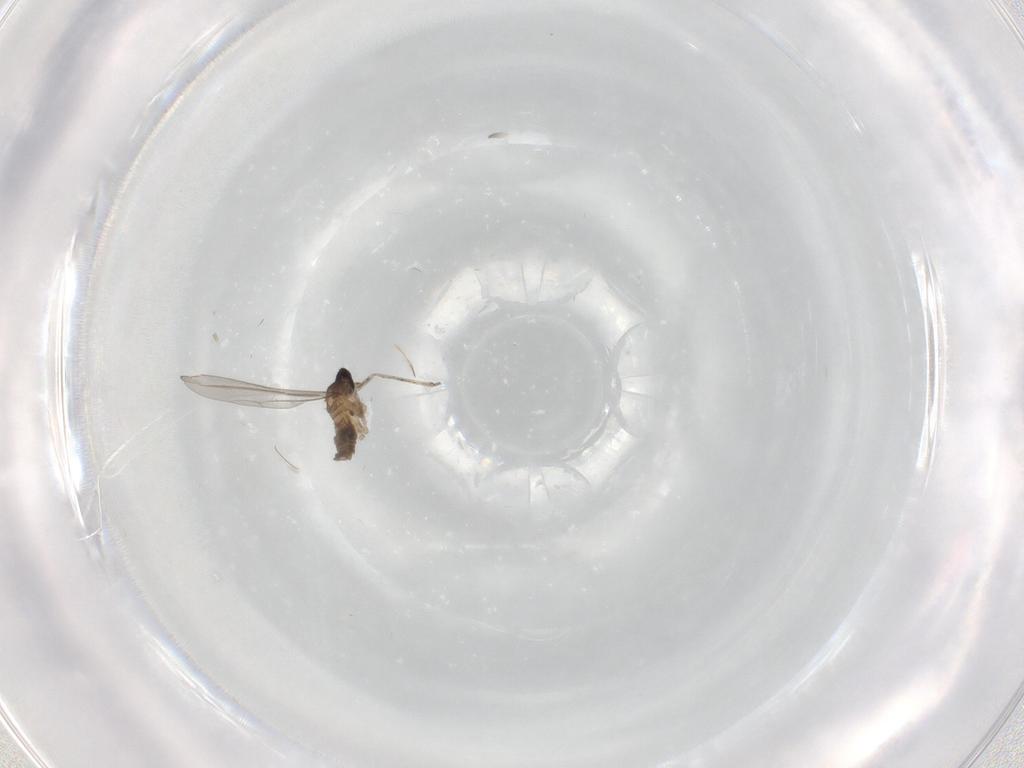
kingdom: Animalia
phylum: Arthropoda
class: Insecta
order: Diptera
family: Cecidomyiidae
